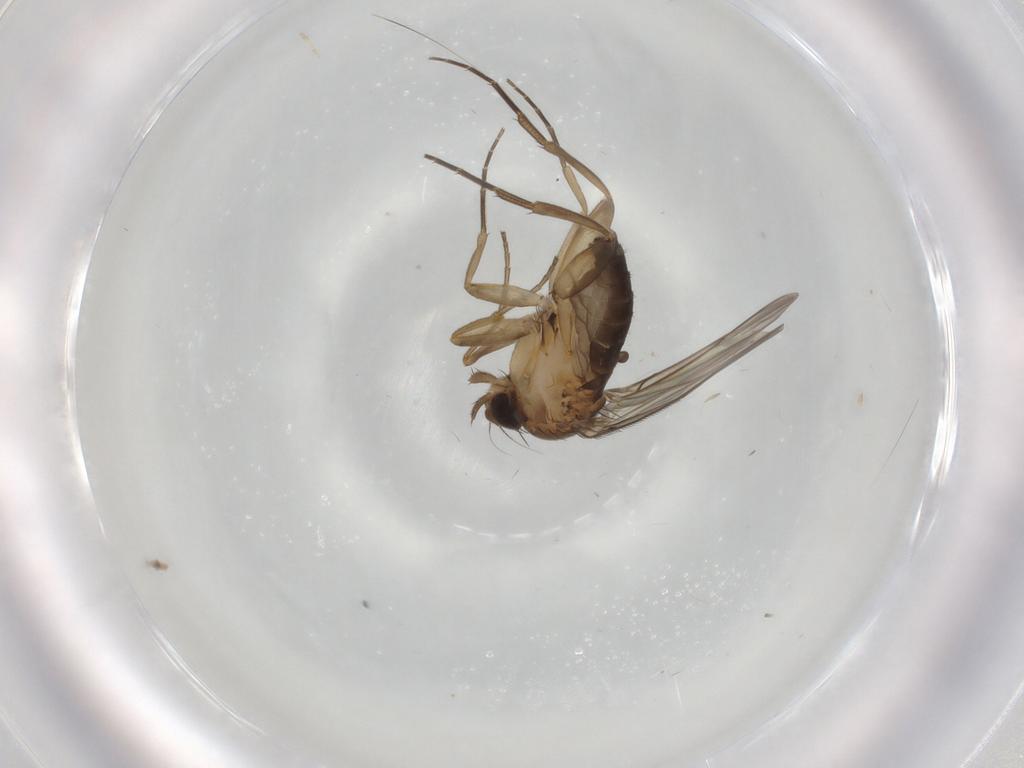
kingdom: Animalia
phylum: Arthropoda
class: Insecta
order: Diptera
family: Phoridae
